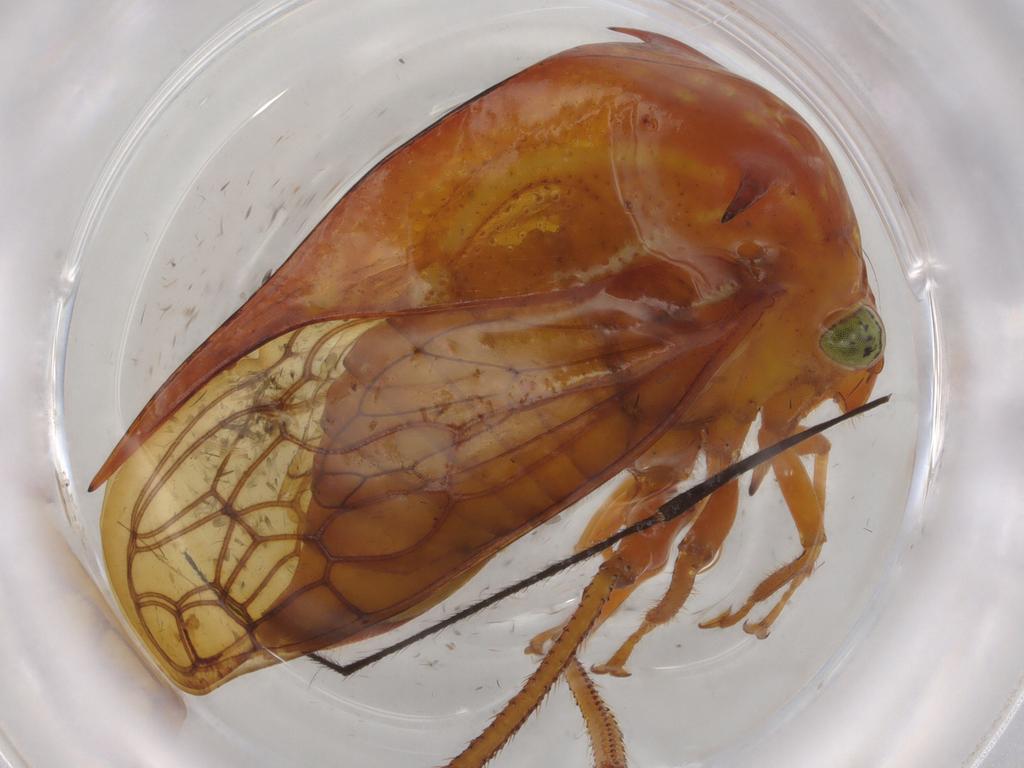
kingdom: Animalia
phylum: Arthropoda
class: Insecta
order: Hemiptera
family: Membracidae
